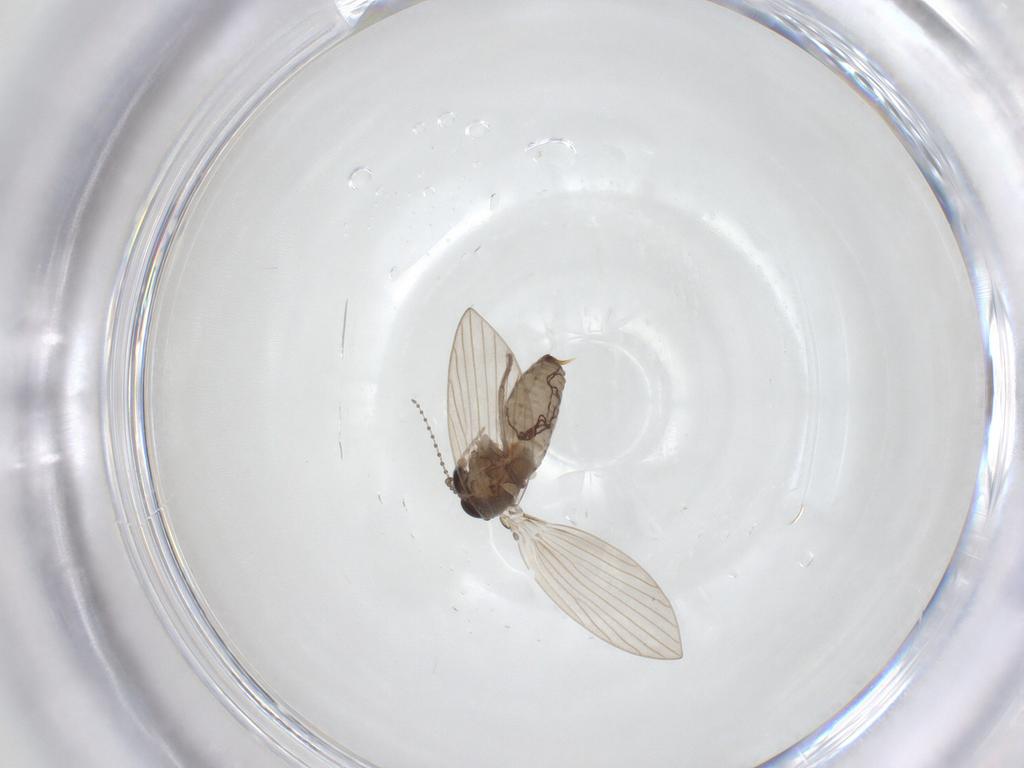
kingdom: Animalia
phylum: Arthropoda
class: Insecta
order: Diptera
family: Psychodidae
